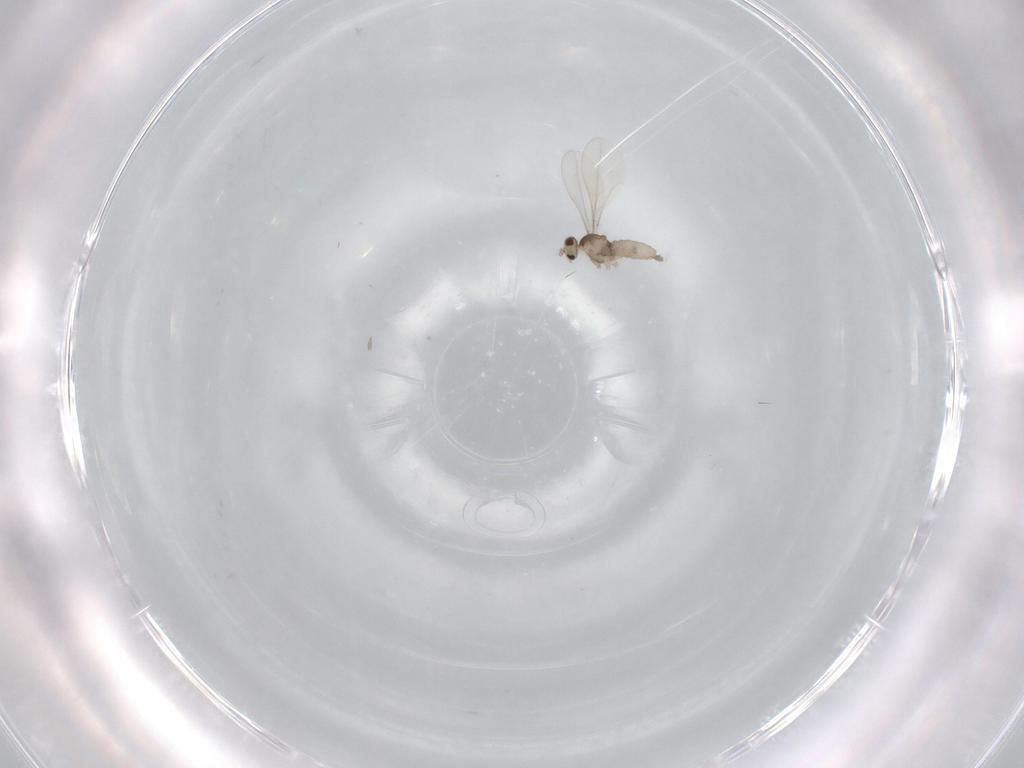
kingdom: Animalia
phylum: Arthropoda
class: Insecta
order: Diptera
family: Cecidomyiidae
